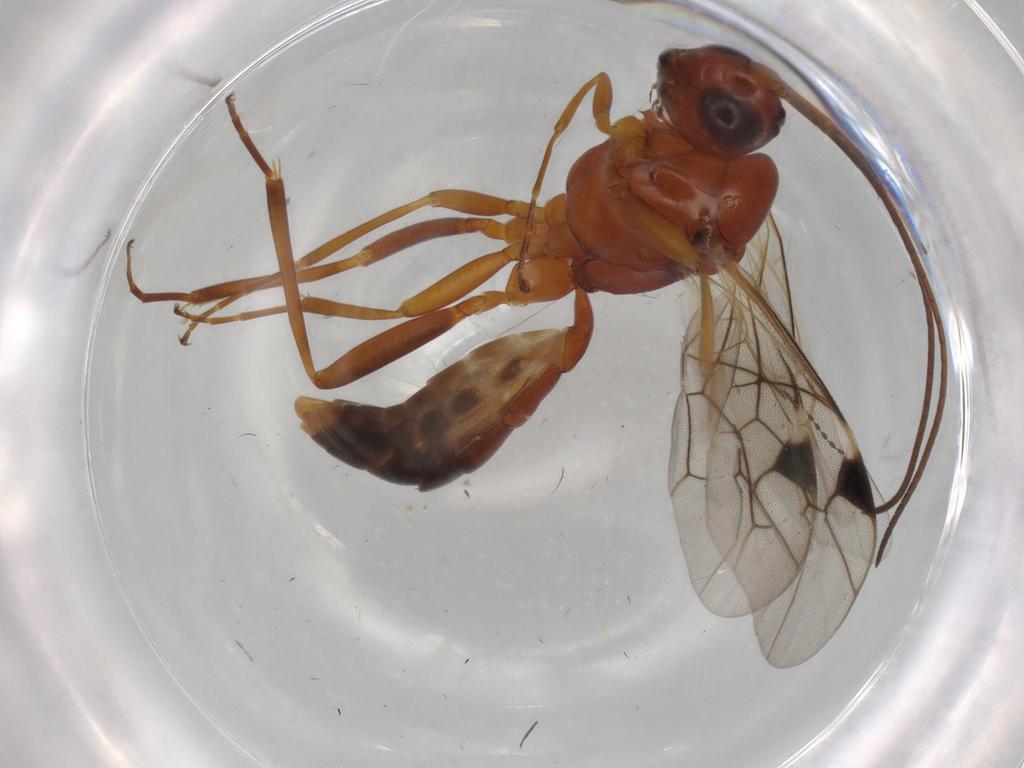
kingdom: Animalia
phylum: Arthropoda
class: Insecta
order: Hymenoptera
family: Ichneumonidae
